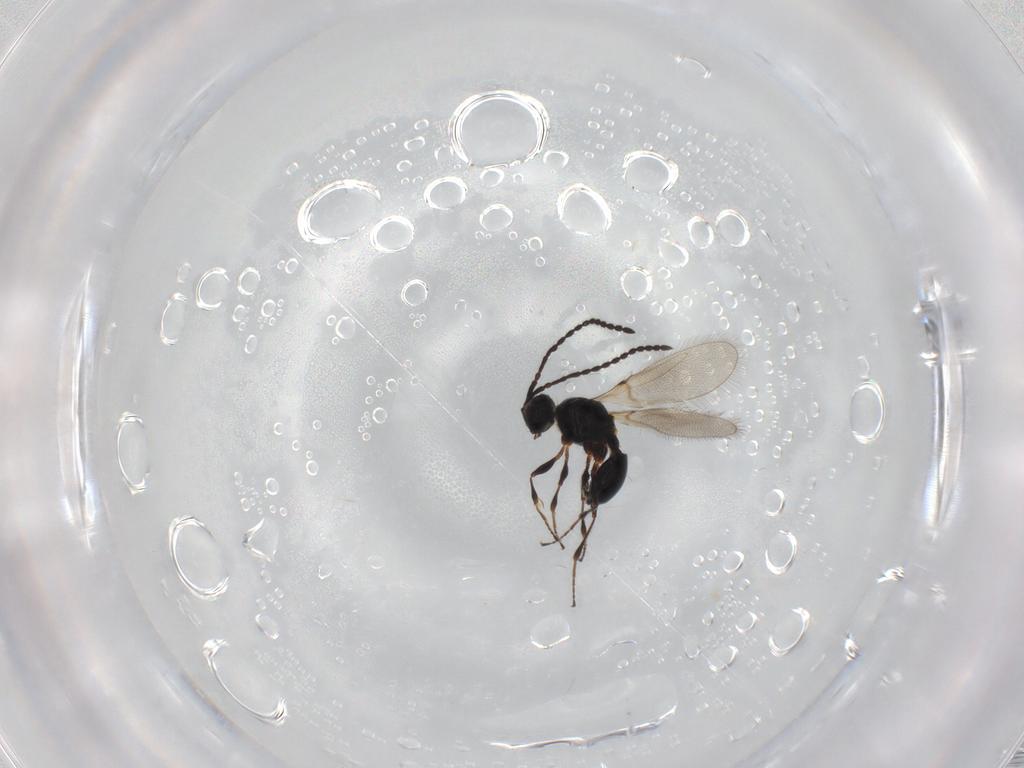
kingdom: Animalia
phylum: Arthropoda
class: Insecta
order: Hymenoptera
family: Diapriidae
